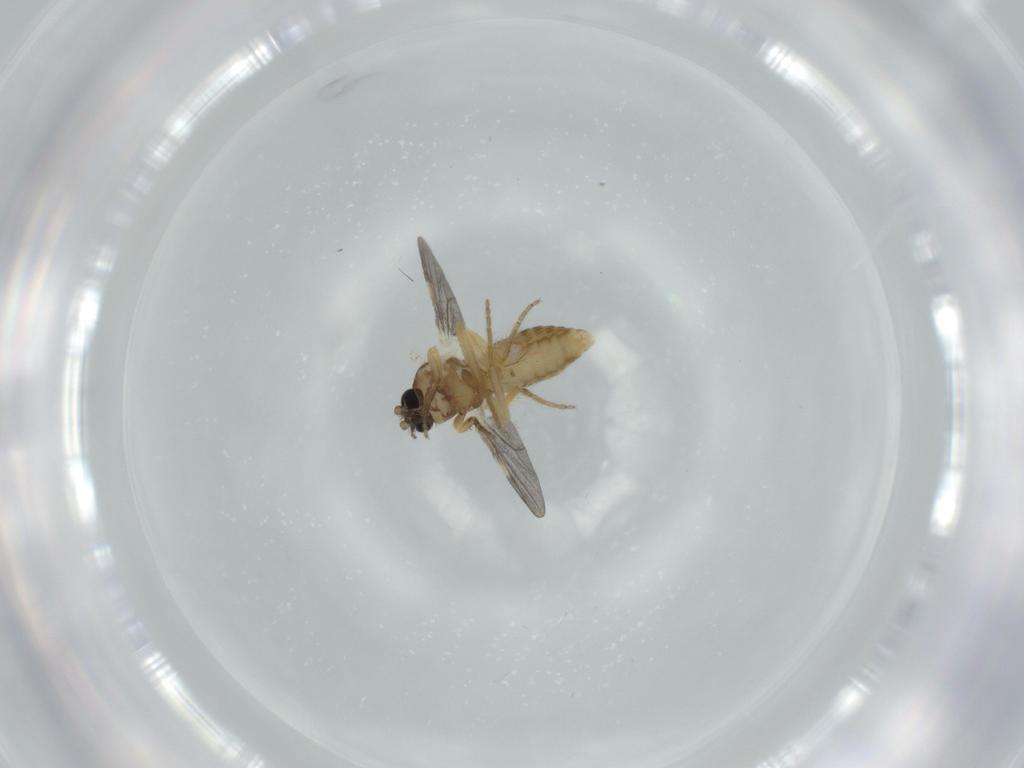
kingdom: Animalia
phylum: Arthropoda
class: Insecta
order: Diptera
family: Ceratopogonidae
